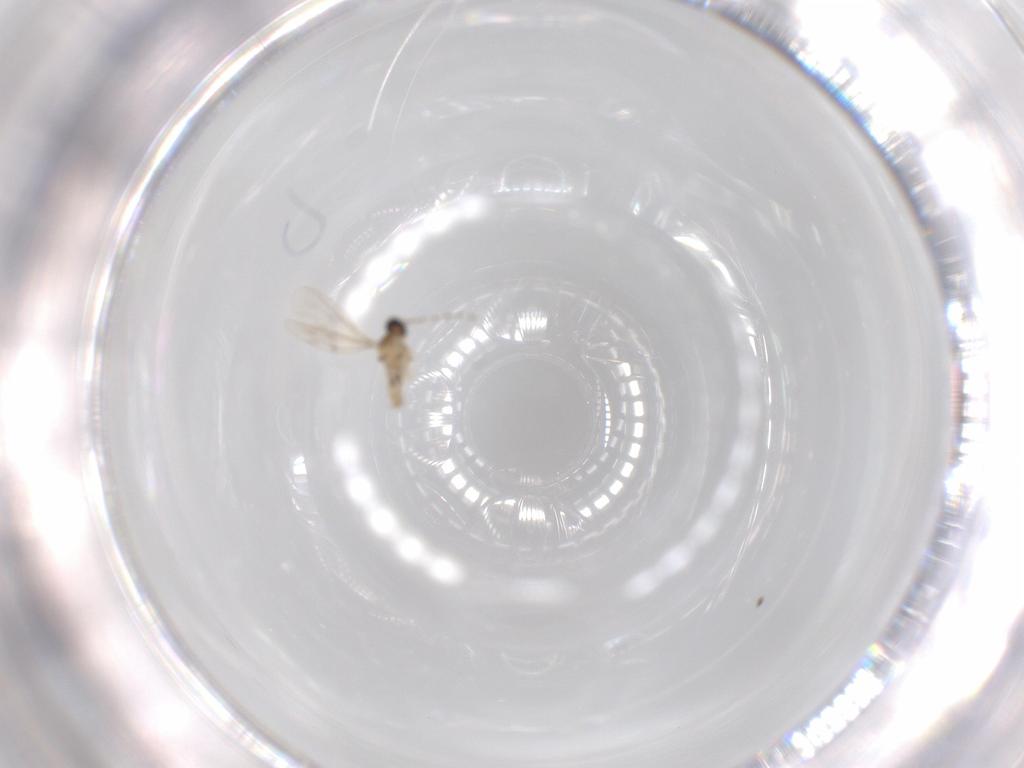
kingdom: Animalia
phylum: Arthropoda
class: Insecta
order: Diptera
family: Cecidomyiidae
